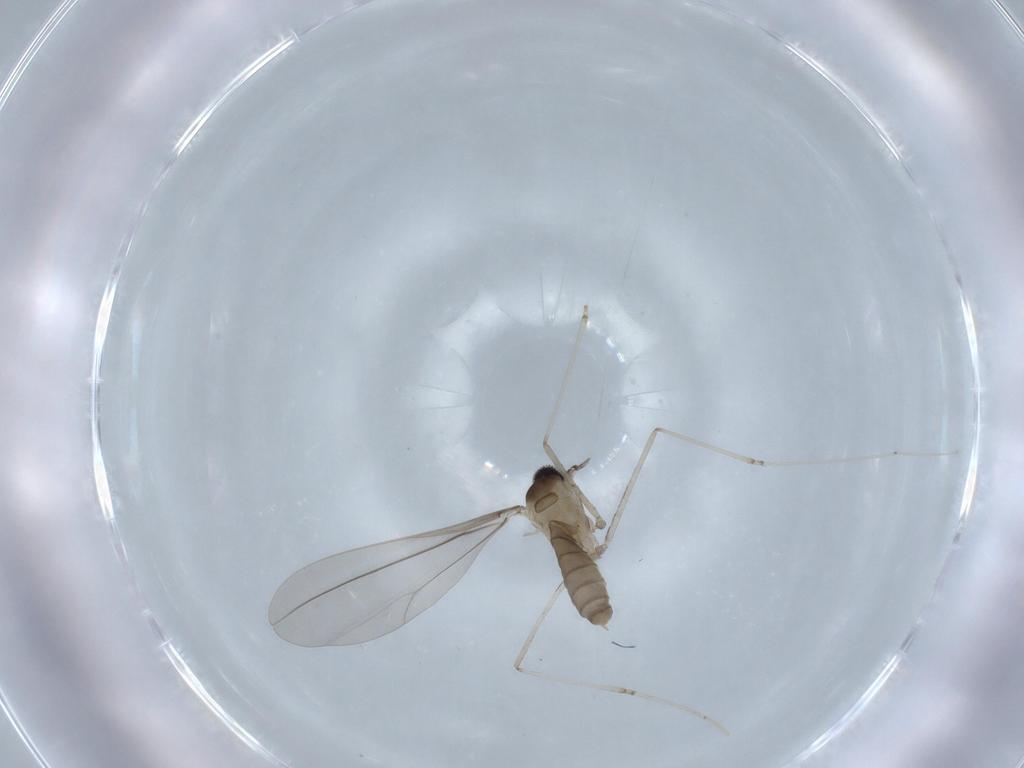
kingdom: Animalia
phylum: Arthropoda
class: Insecta
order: Diptera
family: Cecidomyiidae
